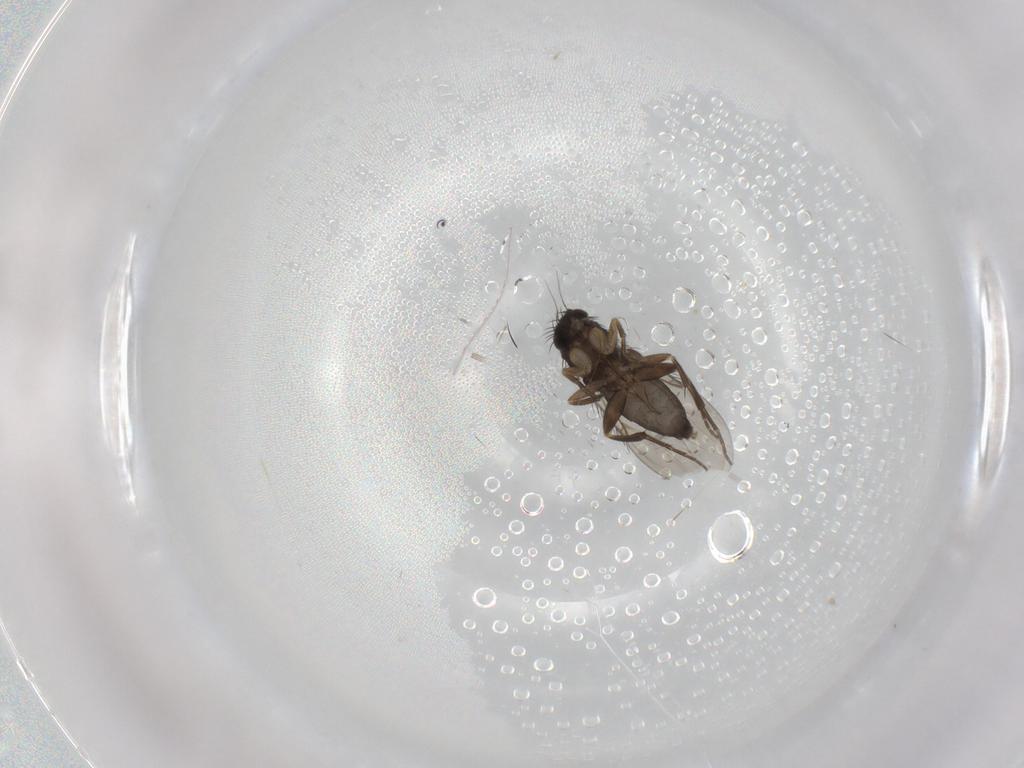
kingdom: Animalia
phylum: Arthropoda
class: Insecta
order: Diptera
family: Phoridae
